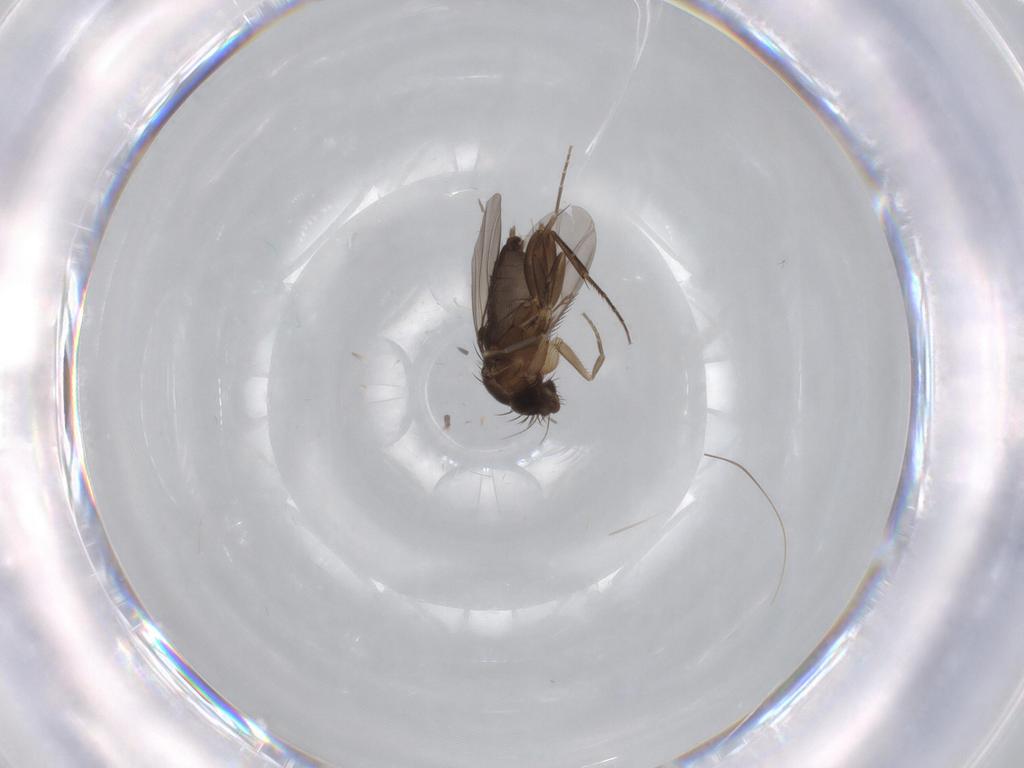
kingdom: Animalia
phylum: Arthropoda
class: Insecta
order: Diptera
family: Phoridae
